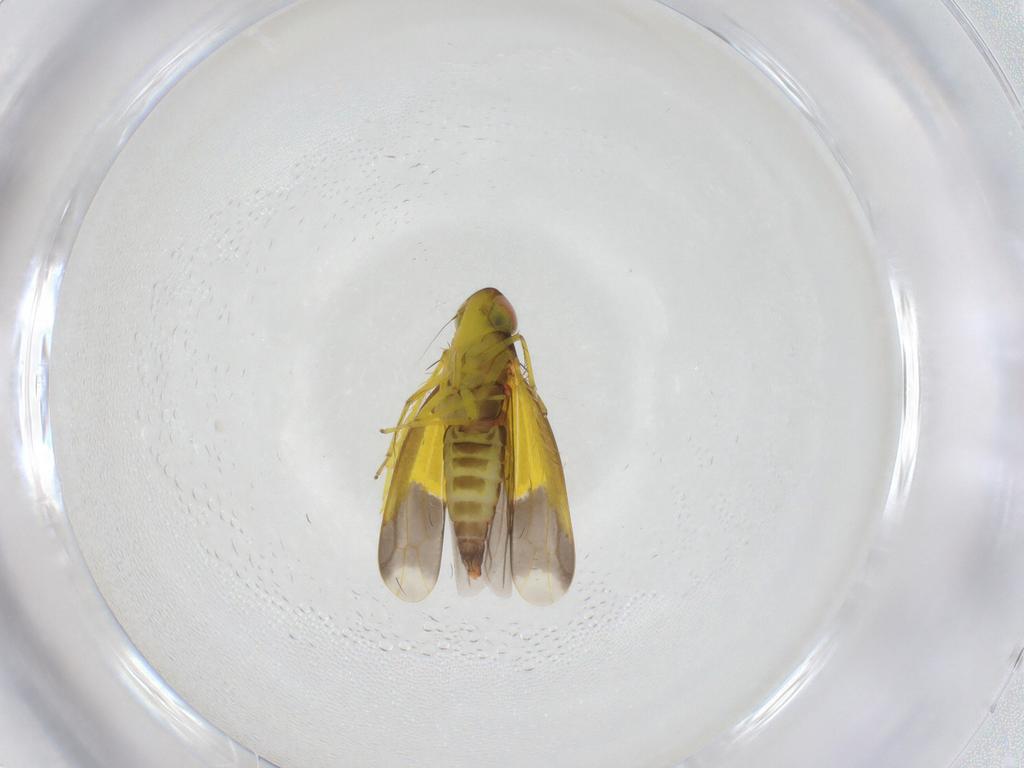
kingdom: Animalia
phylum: Arthropoda
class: Insecta
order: Hemiptera
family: Cicadellidae
